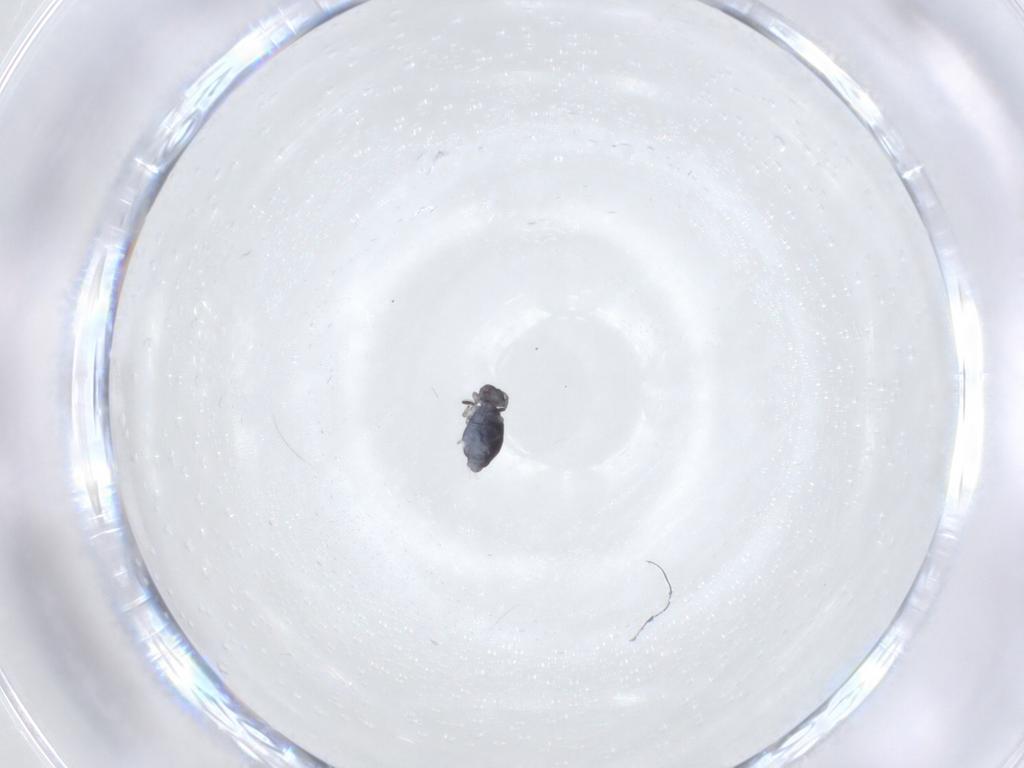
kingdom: Animalia
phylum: Arthropoda
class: Collembola
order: Symphypleona
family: Katiannidae
